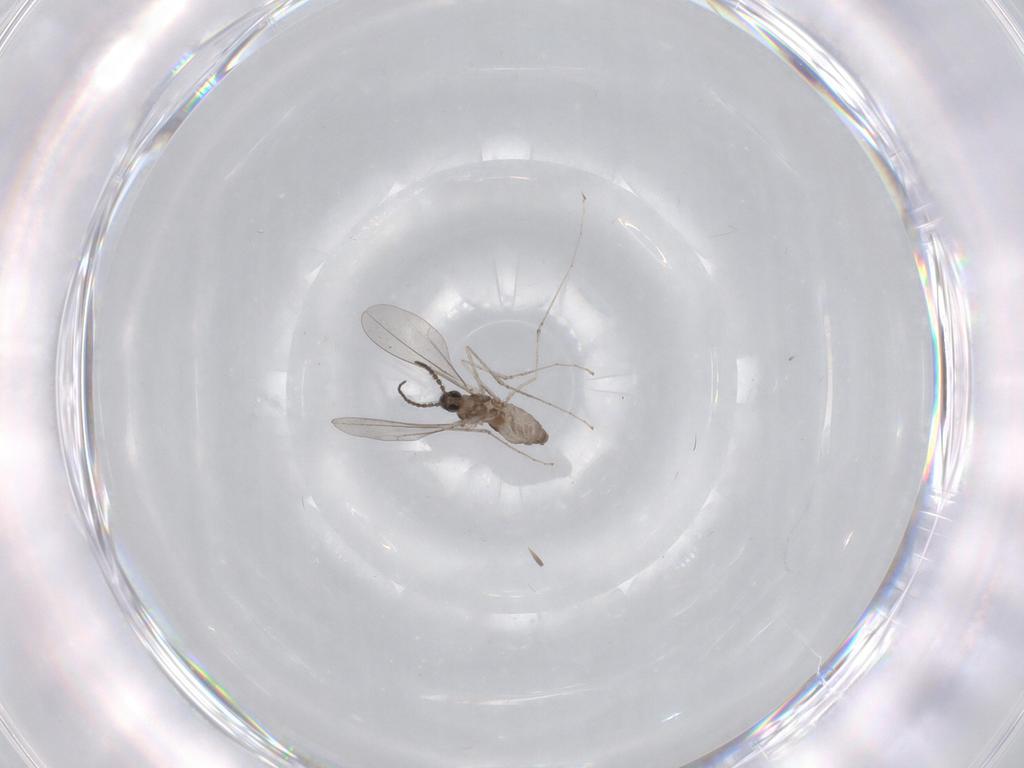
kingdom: Animalia
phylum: Arthropoda
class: Insecta
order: Diptera
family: Cecidomyiidae
